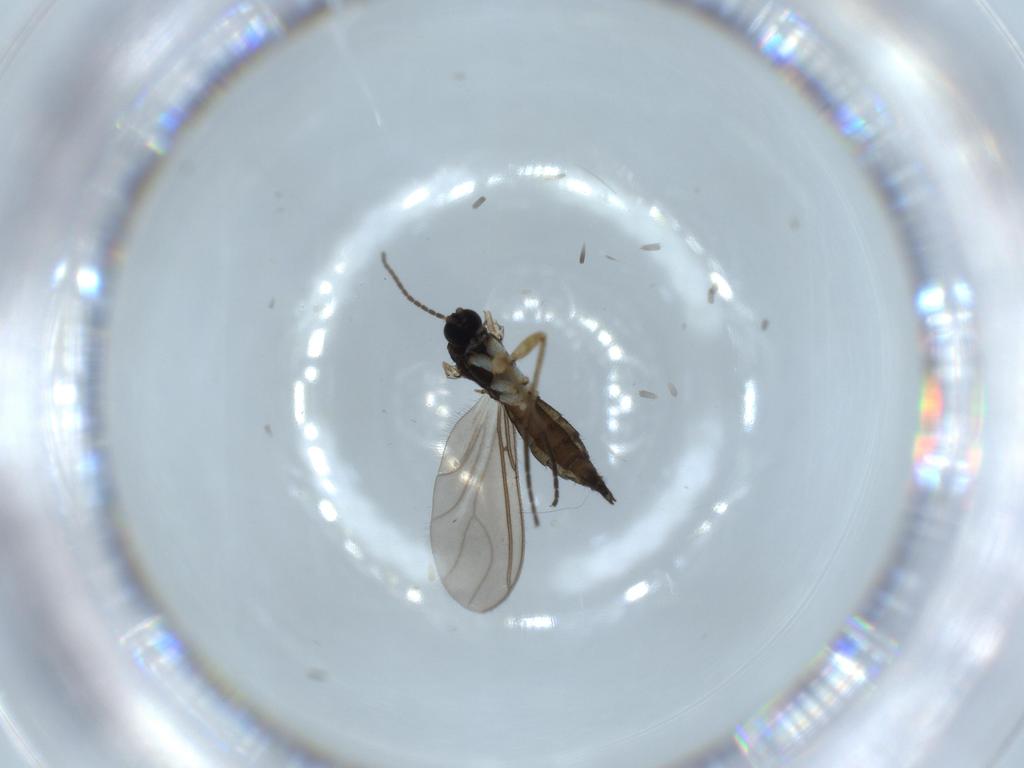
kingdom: Animalia
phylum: Arthropoda
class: Insecta
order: Diptera
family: Sciaridae
